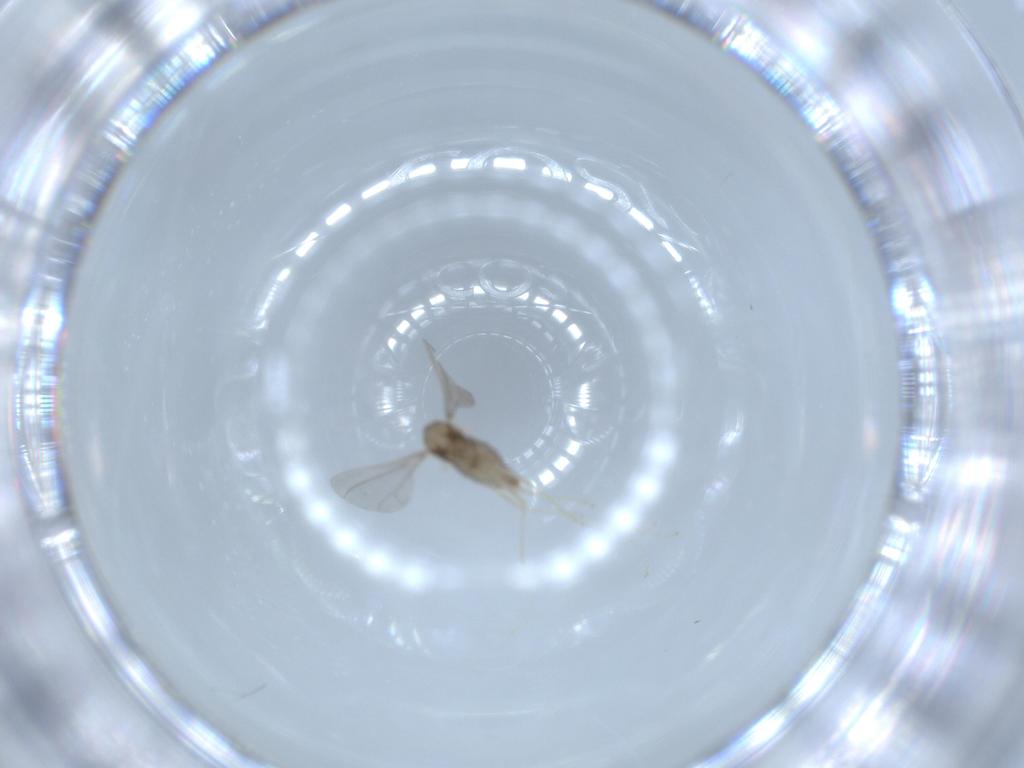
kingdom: Animalia
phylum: Arthropoda
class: Insecta
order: Diptera
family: Cecidomyiidae
